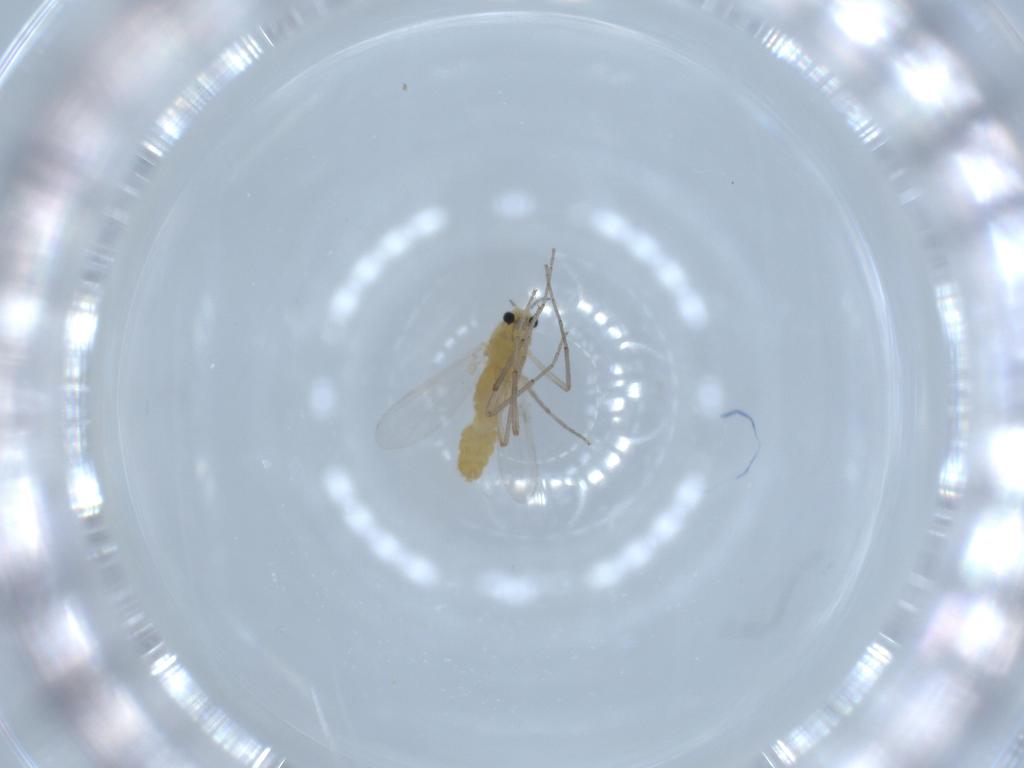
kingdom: Animalia
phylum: Arthropoda
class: Insecta
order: Diptera
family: Chironomidae
